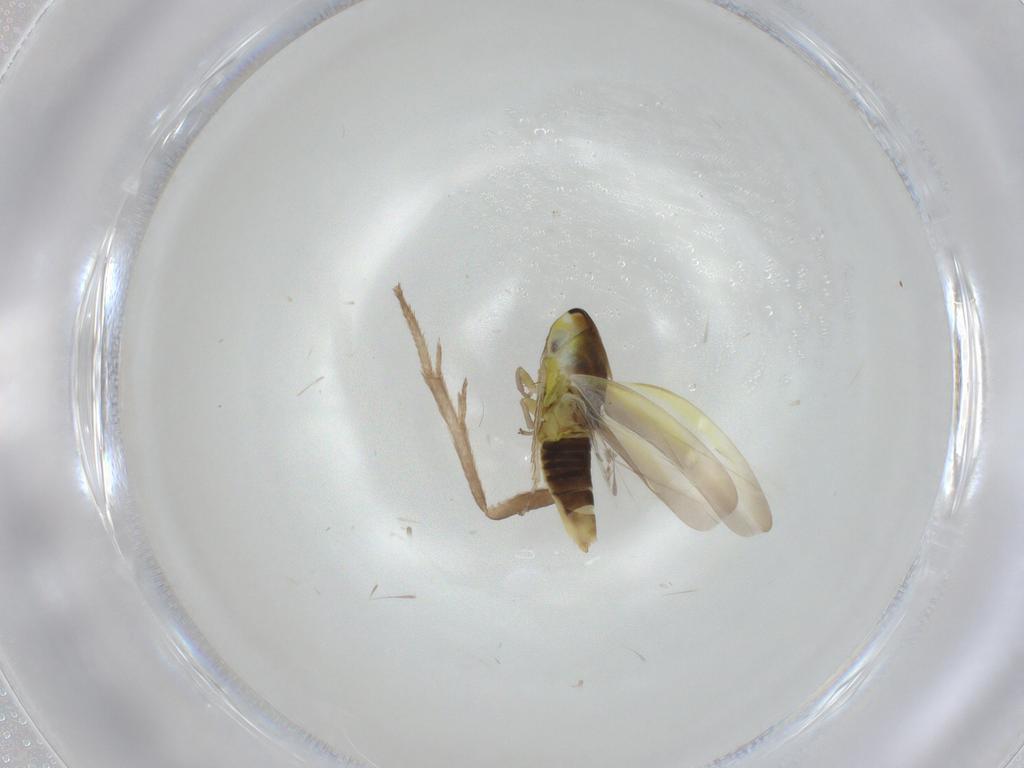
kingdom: Animalia
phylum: Arthropoda
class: Insecta
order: Hemiptera
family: Cicadellidae
